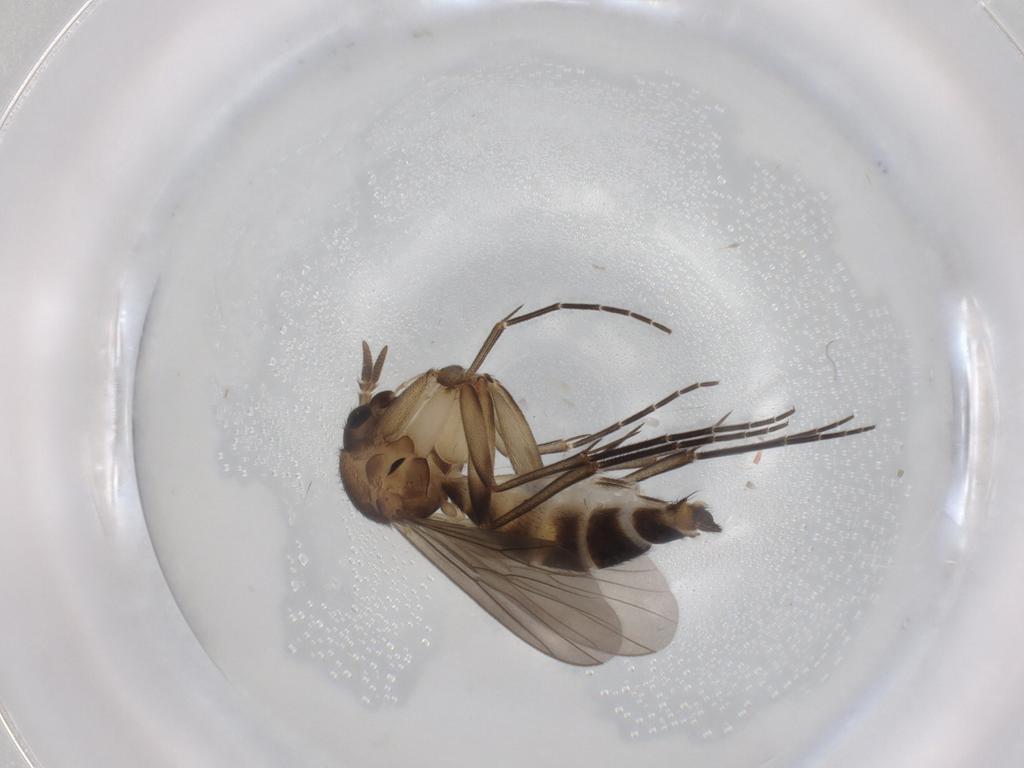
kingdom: Animalia
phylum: Arthropoda
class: Insecta
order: Diptera
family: Mycetophilidae
